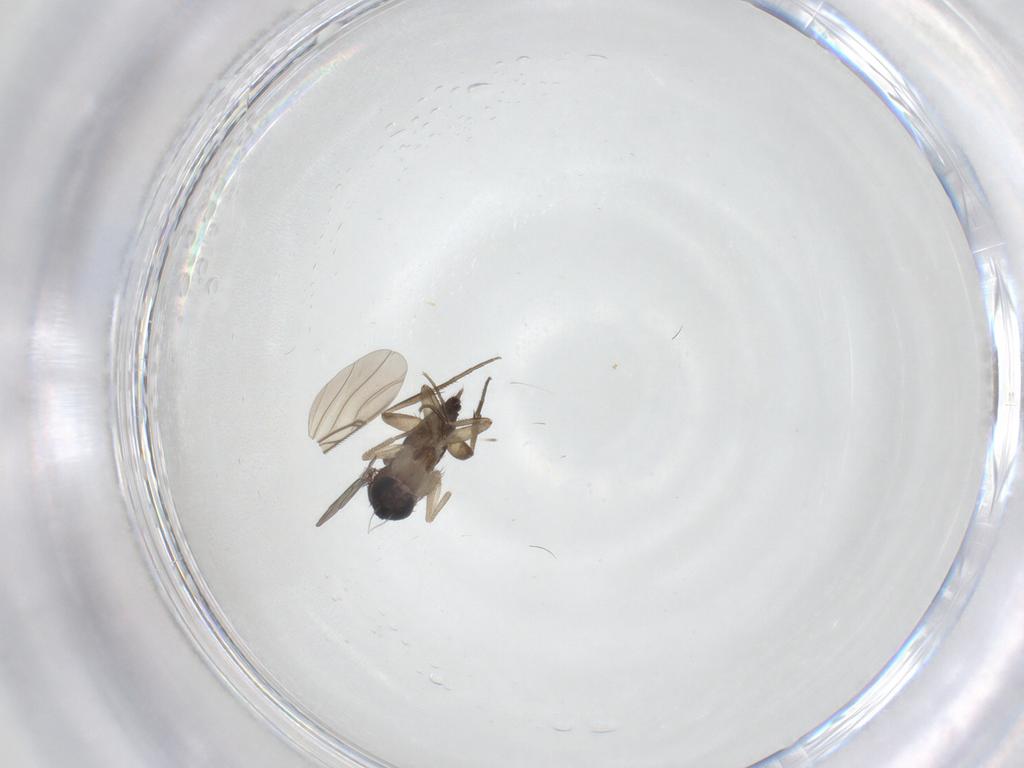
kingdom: Animalia
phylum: Arthropoda
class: Insecta
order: Diptera
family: Phoridae
